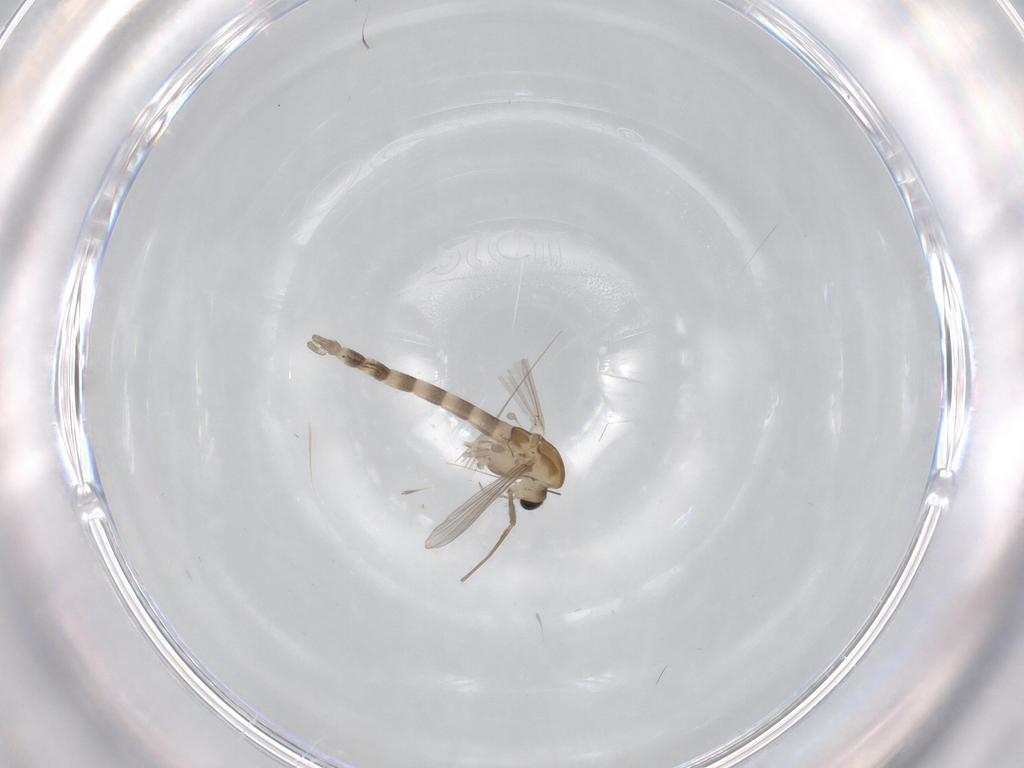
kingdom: Animalia
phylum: Arthropoda
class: Insecta
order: Diptera
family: Chironomidae
